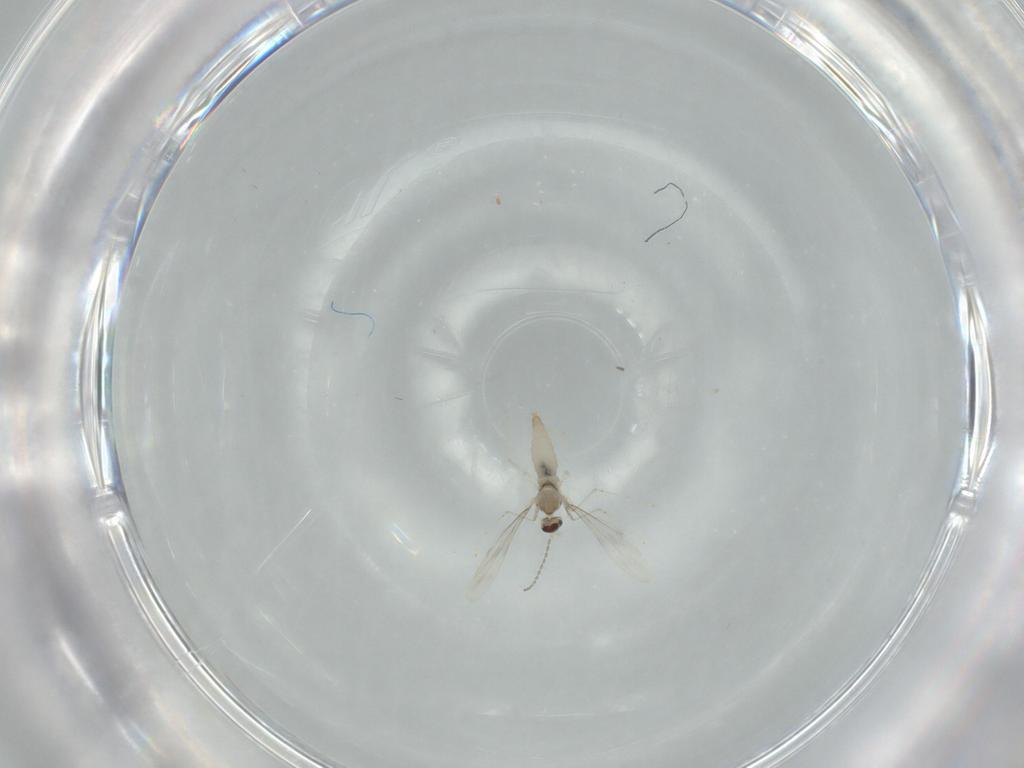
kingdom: Animalia
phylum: Arthropoda
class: Insecta
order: Diptera
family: Cecidomyiidae
